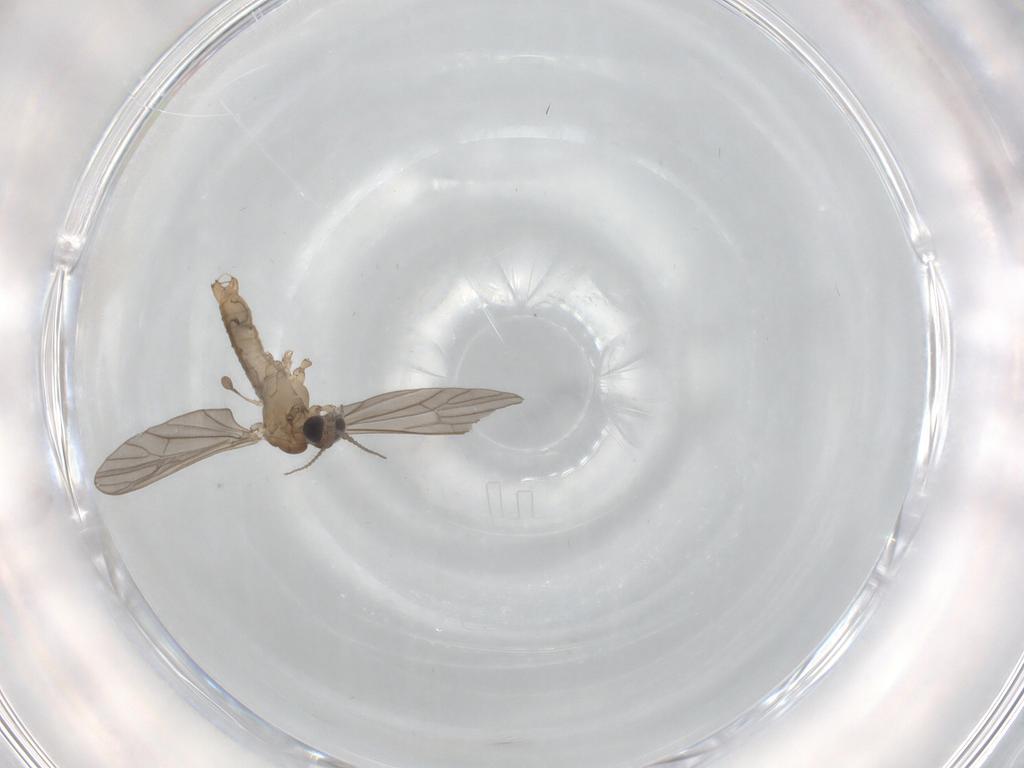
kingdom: Animalia
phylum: Arthropoda
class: Insecta
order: Diptera
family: Limoniidae
